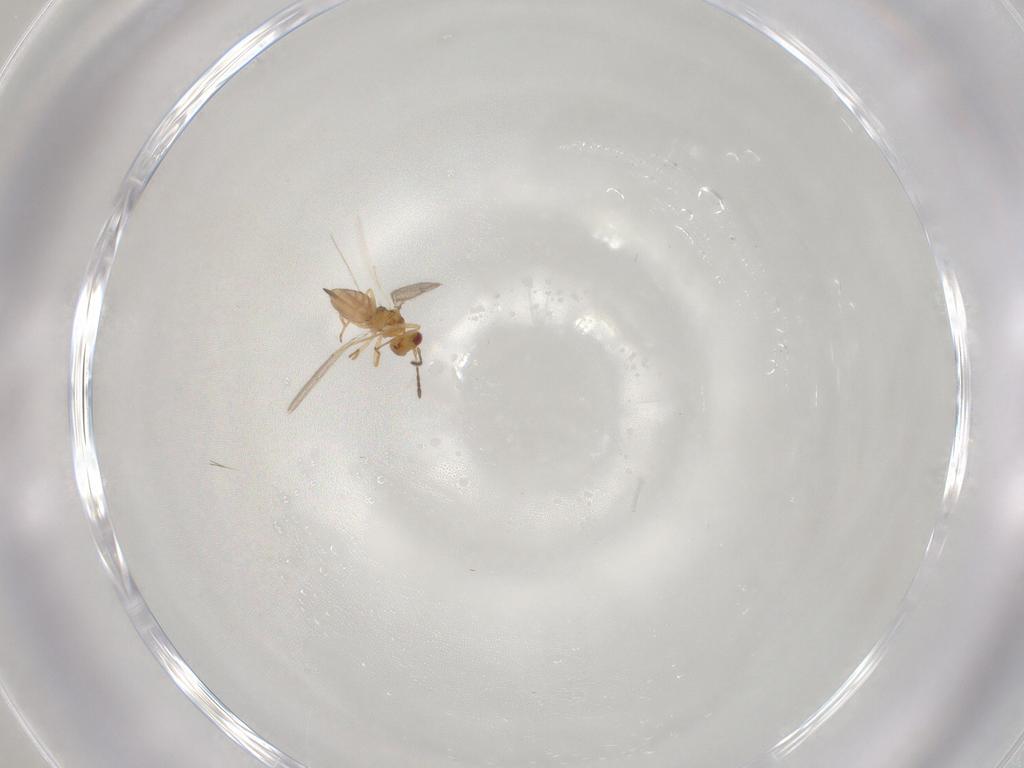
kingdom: Animalia
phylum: Arthropoda
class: Insecta
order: Hymenoptera
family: Eulophidae
